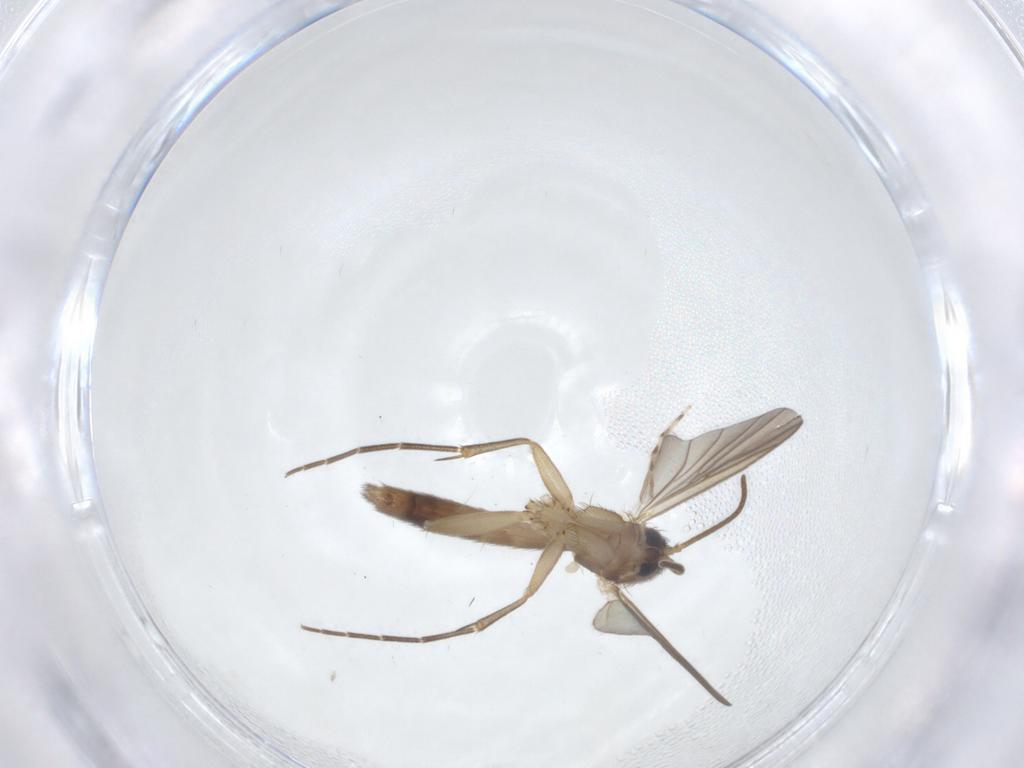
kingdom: Animalia
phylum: Arthropoda
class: Insecta
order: Diptera
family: Mycetophilidae
